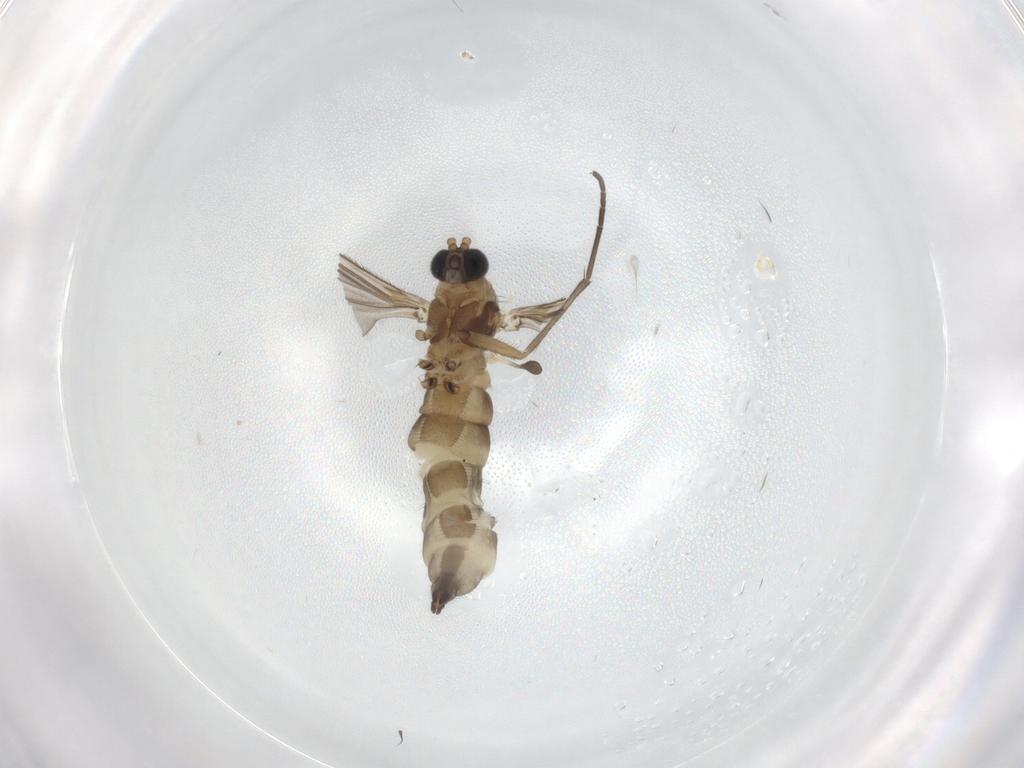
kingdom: Animalia
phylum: Arthropoda
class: Insecta
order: Diptera
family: Sciaridae
